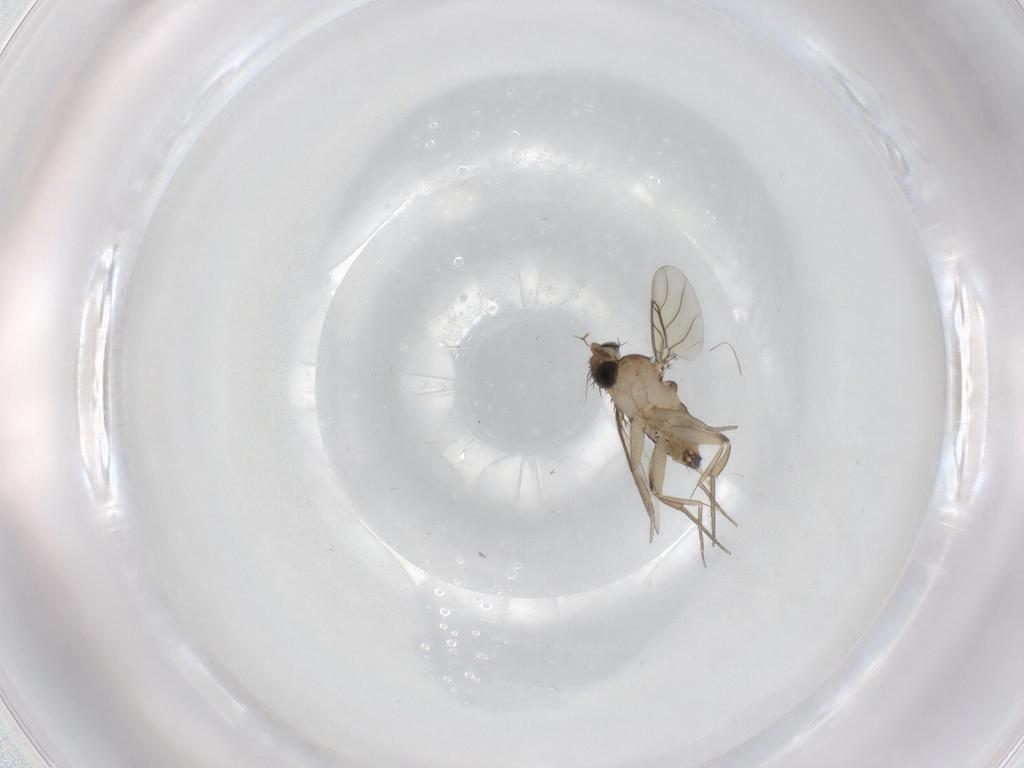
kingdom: Animalia
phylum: Arthropoda
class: Insecta
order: Diptera
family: Phoridae
